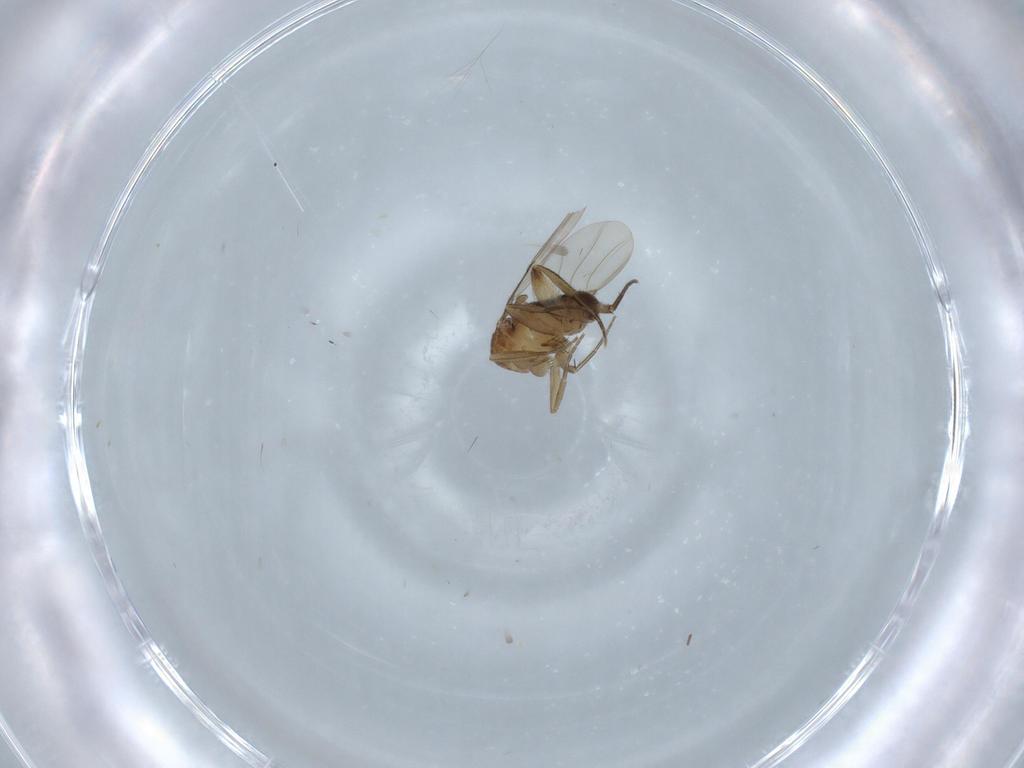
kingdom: Animalia
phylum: Arthropoda
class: Insecta
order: Diptera
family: Phoridae
